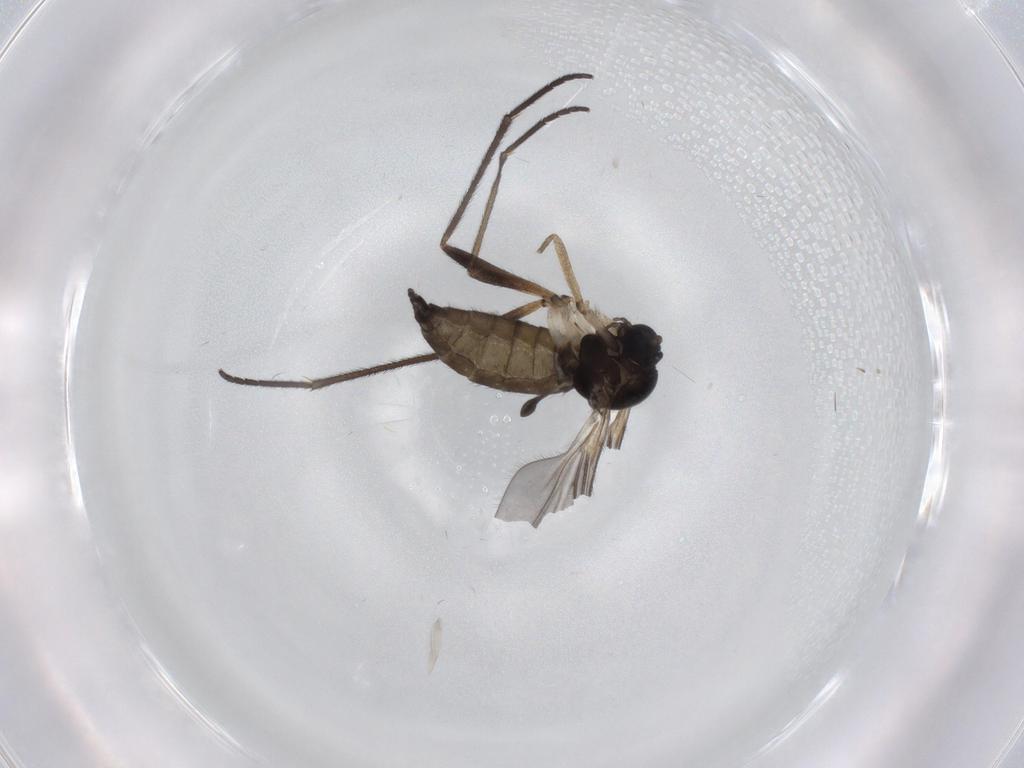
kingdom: Animalia
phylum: Arthropoda
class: Insecta
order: Diptera
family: Sciaridae
